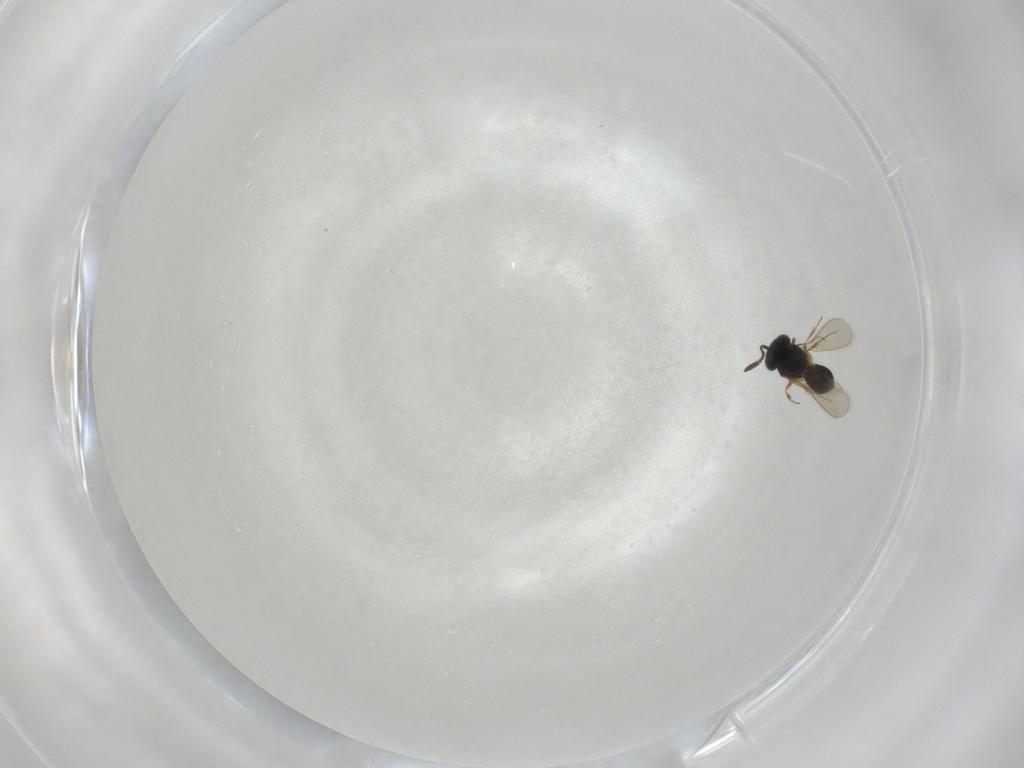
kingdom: Animalia
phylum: Arthropoda
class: Insecta
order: Hymenoptera
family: Scelionidae
